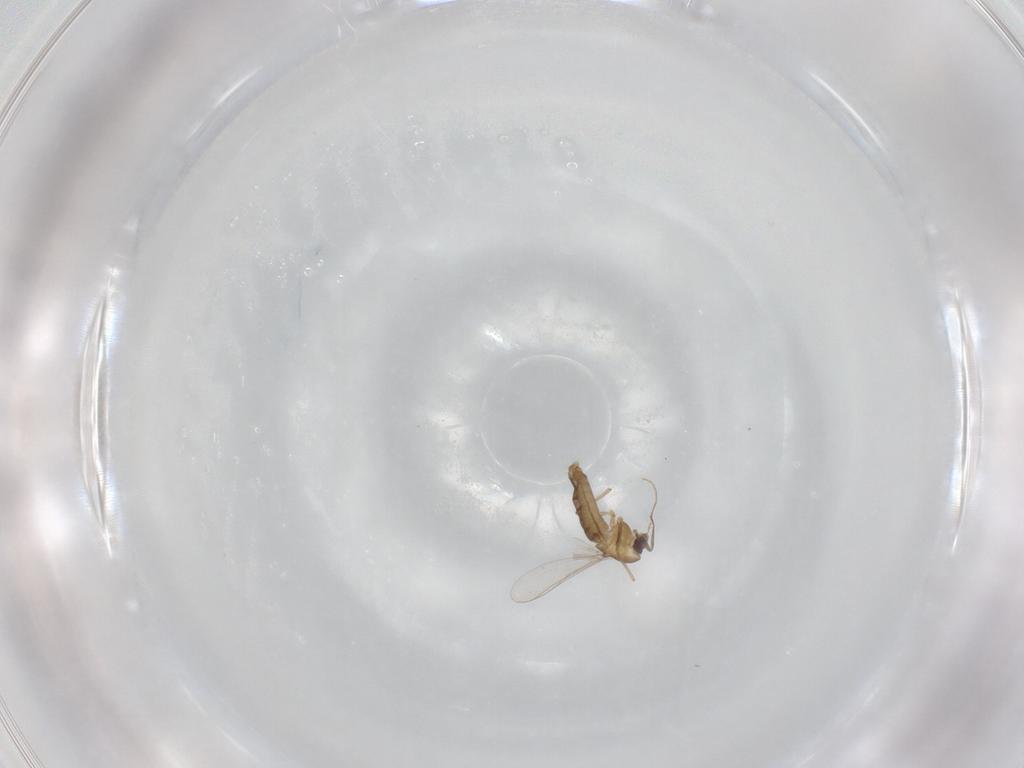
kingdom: Animalia
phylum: Arthropoda
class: Insecta
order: Diptera
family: Chironomidae
